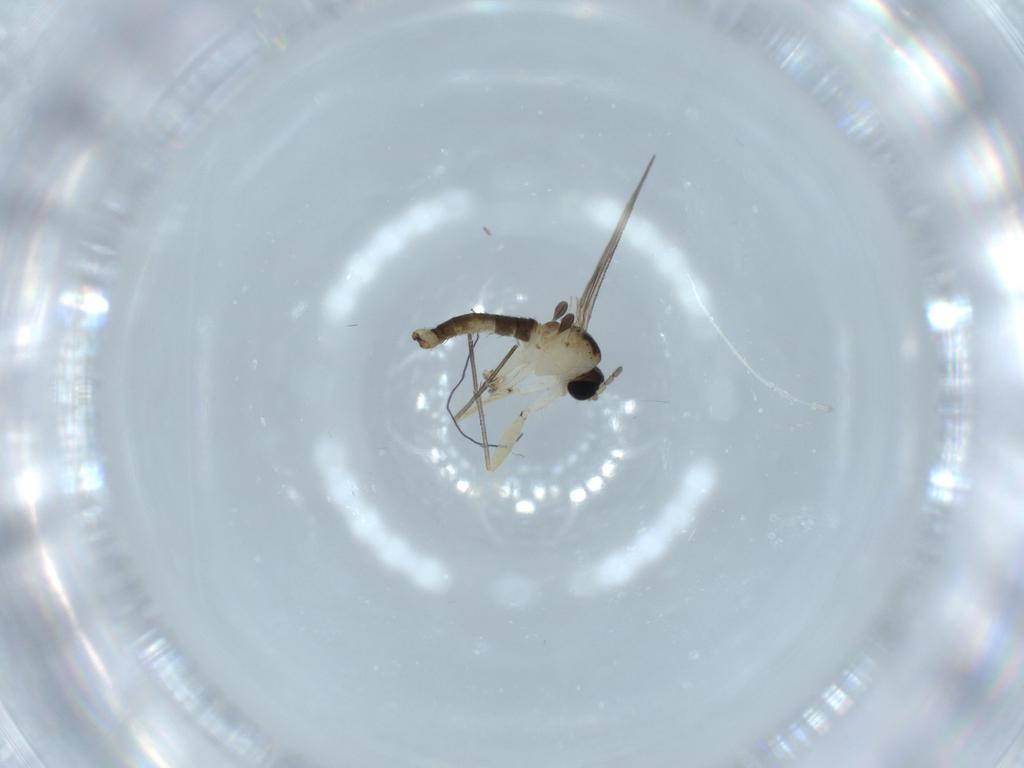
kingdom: Animalia
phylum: Arthropoda
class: Insecta
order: Diptera
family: Sciaridae
